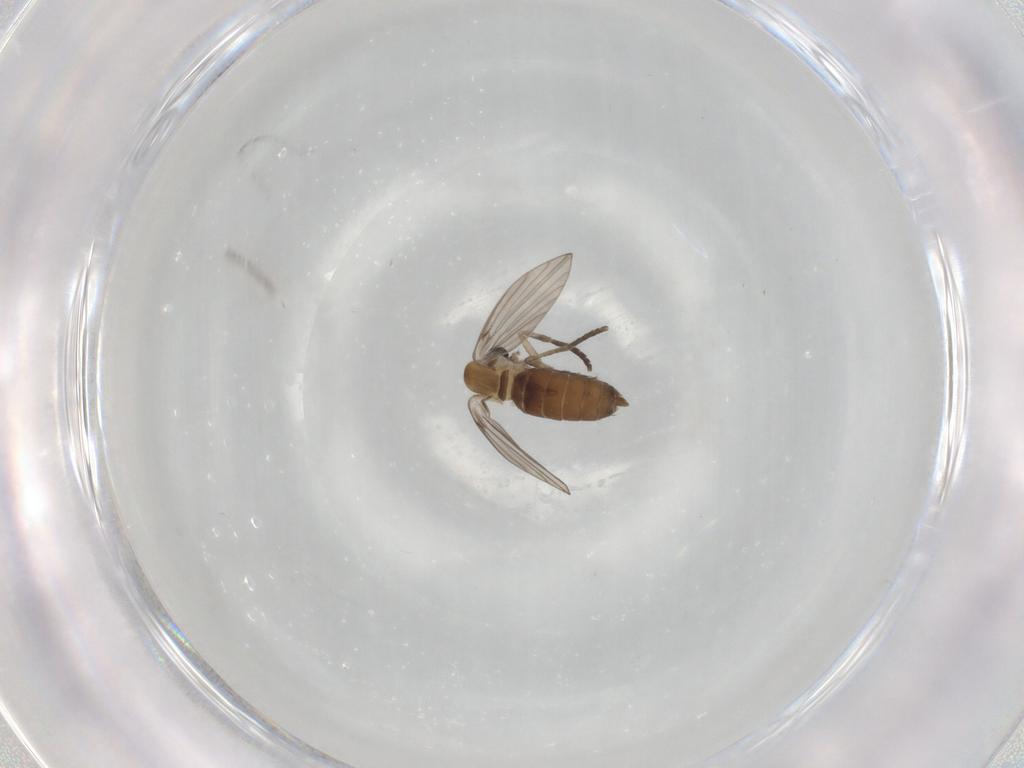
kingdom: Animalia
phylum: Arthropoda
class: Insecta
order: Diptera
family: Psychodidae
